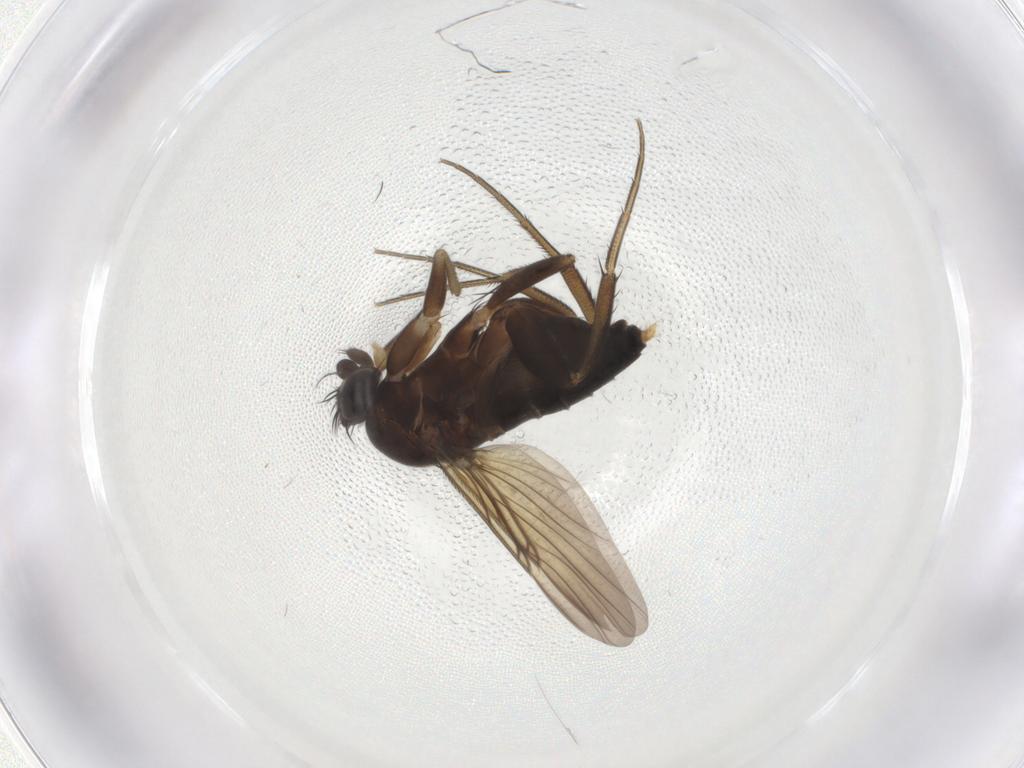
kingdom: Animalia
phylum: Arthropoda
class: Insecta
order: Diptera
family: Phoridae
